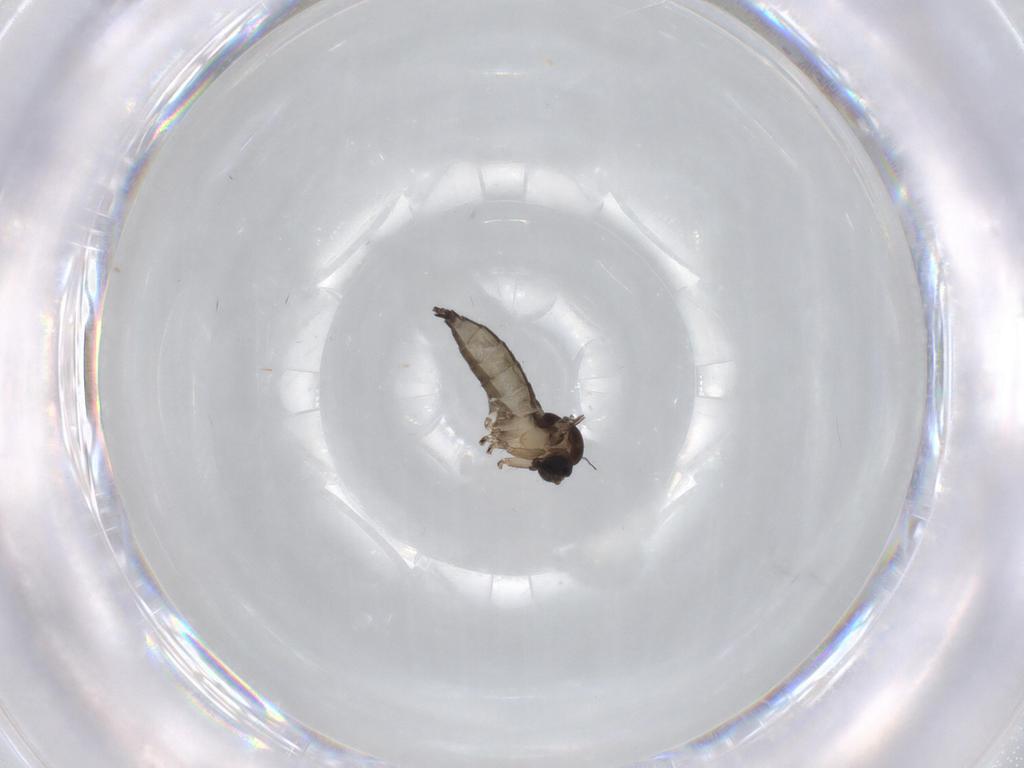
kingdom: Animalia
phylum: Arthropoda
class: Insecta
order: Diptera
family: Sciaridae
